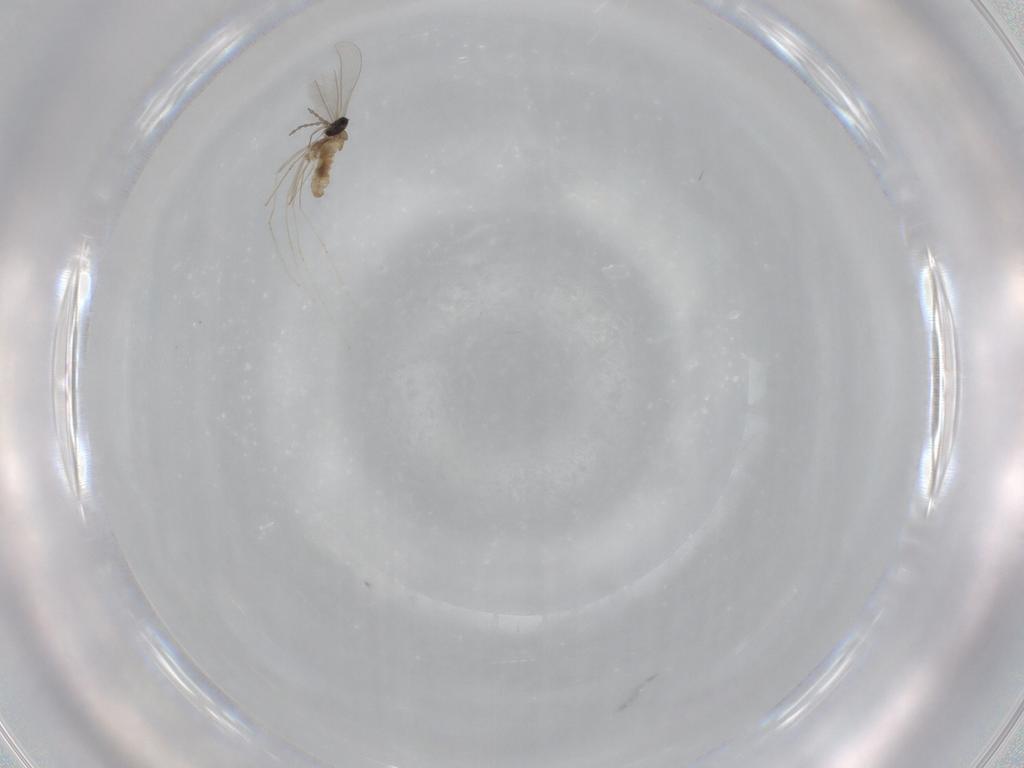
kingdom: Animalia
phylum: Arthropoda
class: Insecta
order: Diptera
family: Cecidomyiidae
